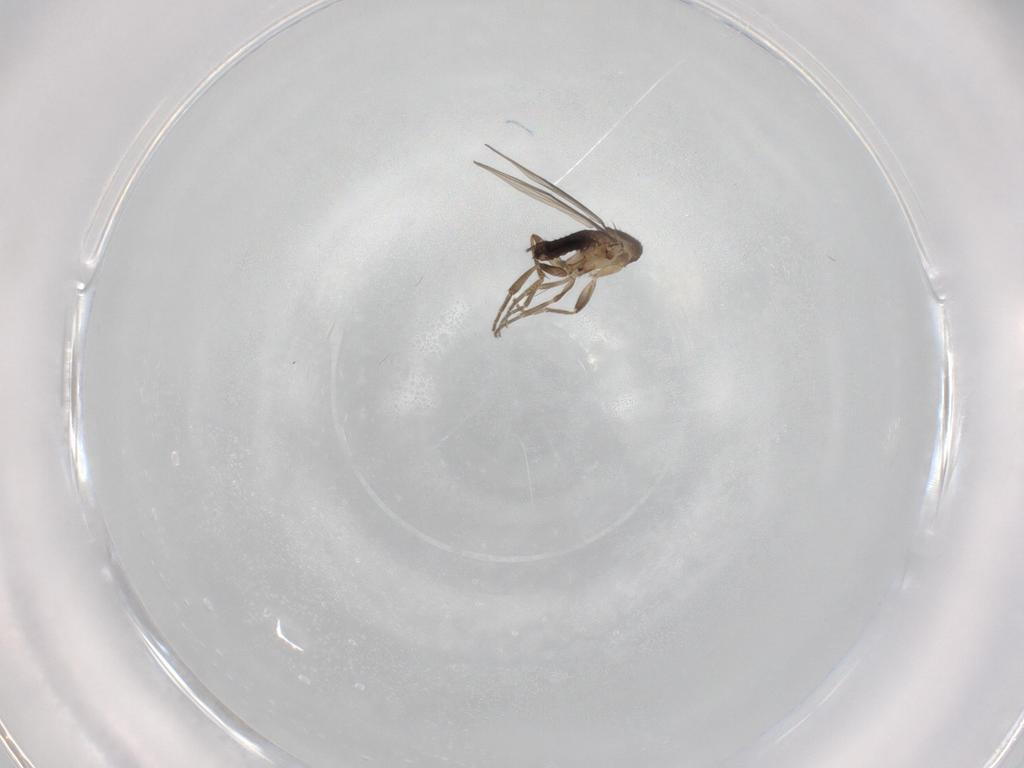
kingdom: Animalia
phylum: Arthropoda
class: Insecta
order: Diptera
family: Phoridae
